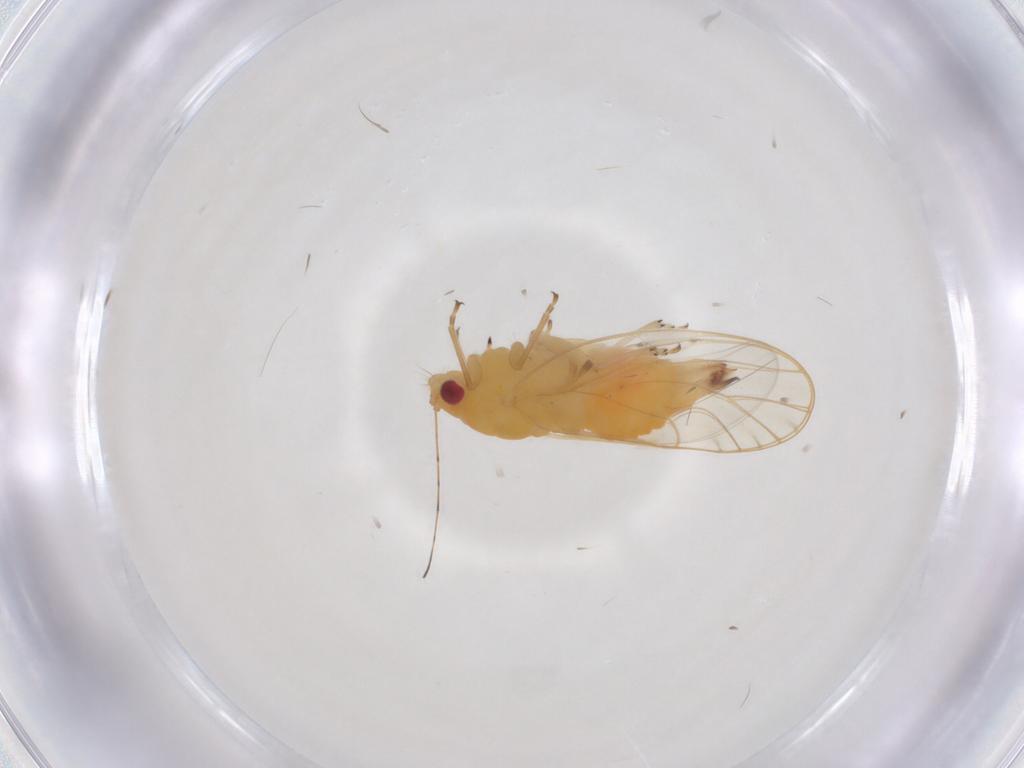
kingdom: Animalia
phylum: Arthropoda
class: Insecta
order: Hemiptera
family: Psyllidae
